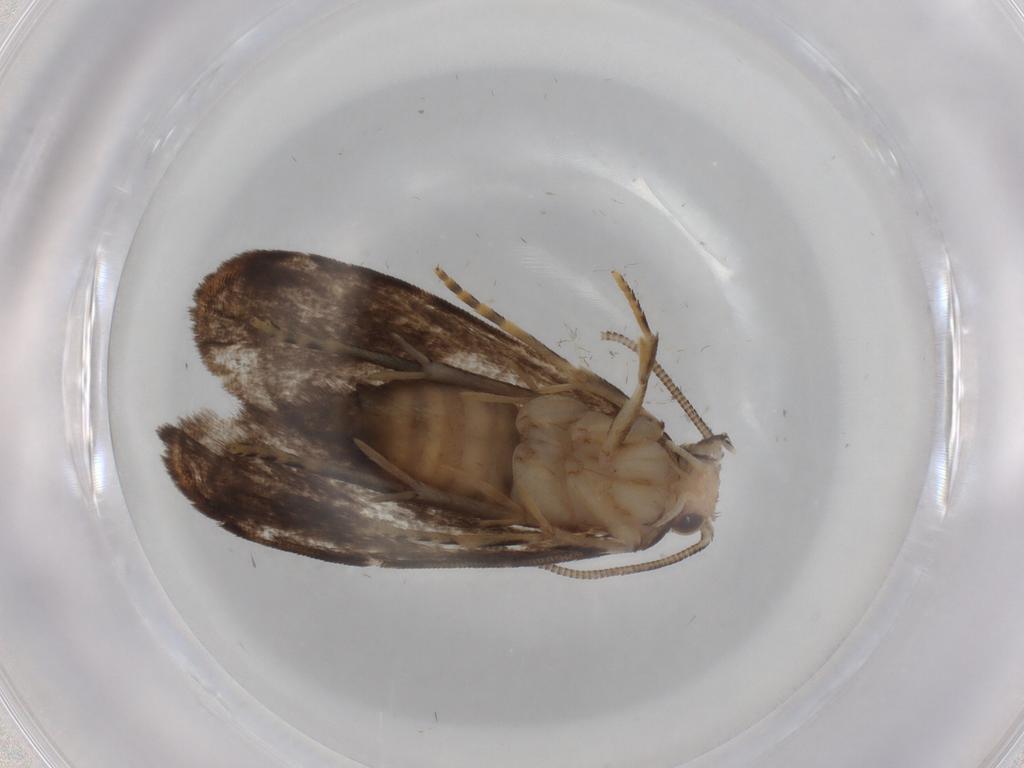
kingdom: Animalia
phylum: Arthropoda
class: Insecta
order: Lepidoptera
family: Dryadaulidae
